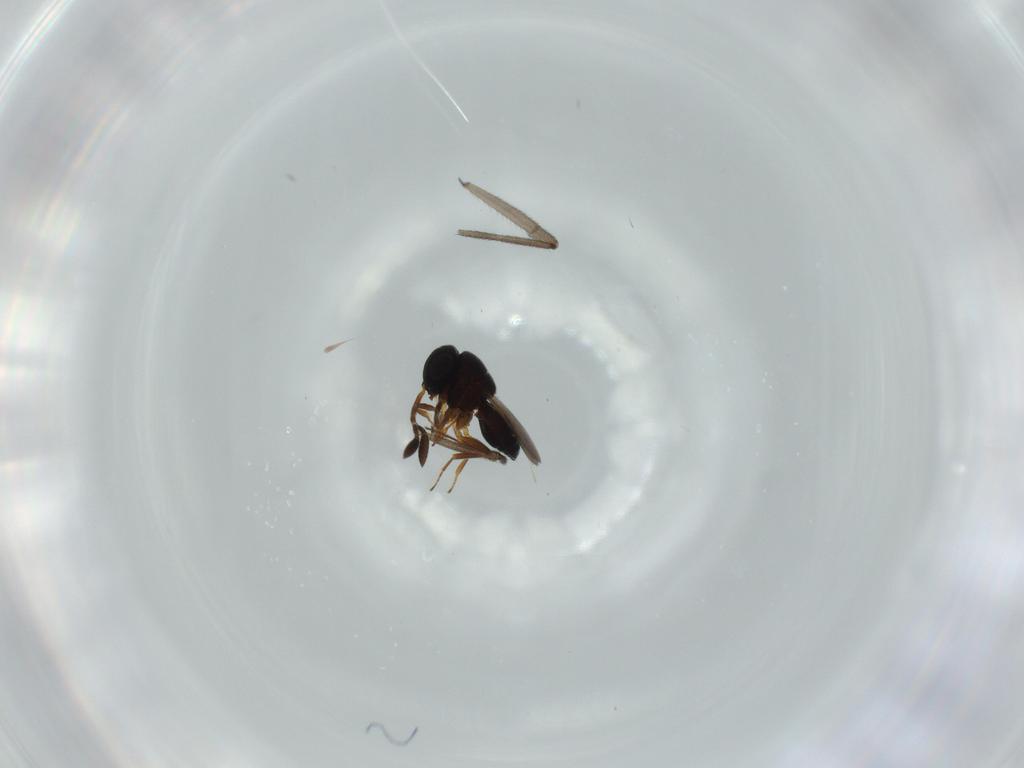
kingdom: Animalia
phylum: Arthropoda
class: Insecta
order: Hymenoptera
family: Scelionidae
